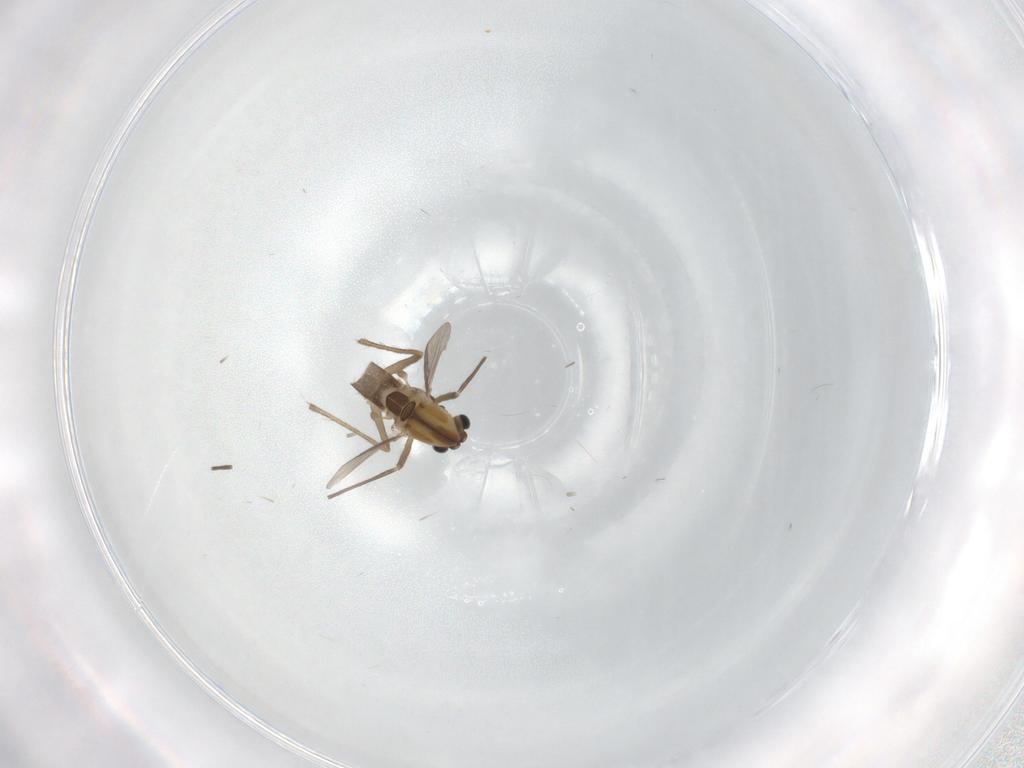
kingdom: Animalia
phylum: Arthropoda
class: Insecta
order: Diptera
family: Chironomidae
